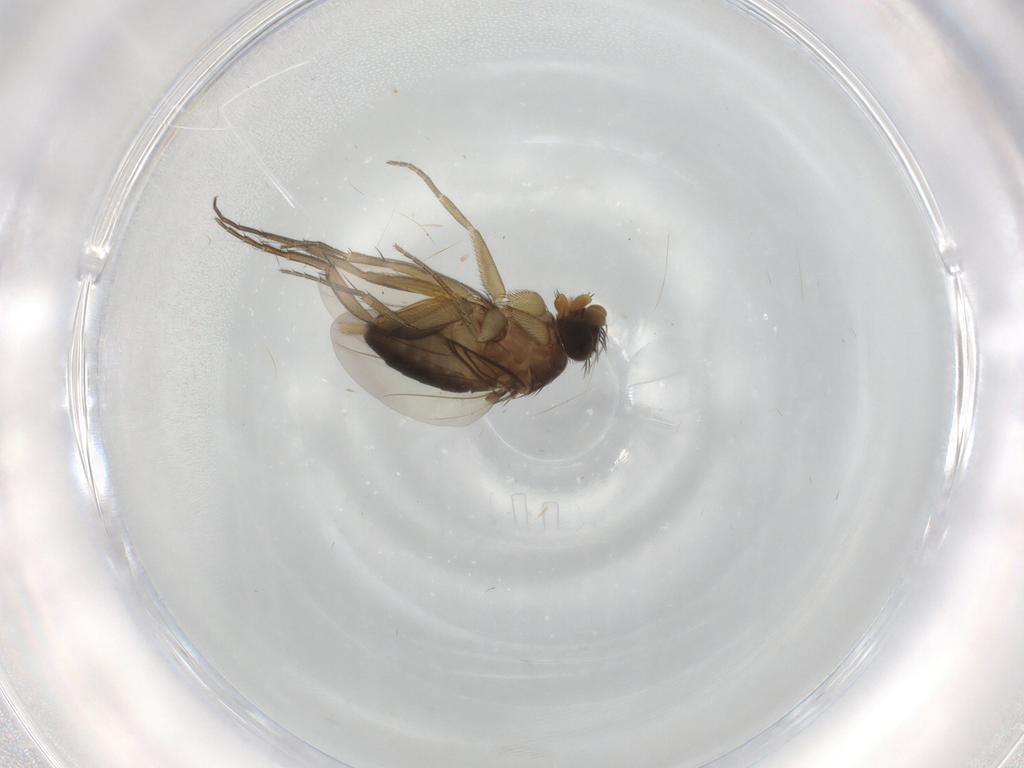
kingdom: Animalia
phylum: Arthropoda
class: Insecta
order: Diptera
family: Phoridae
